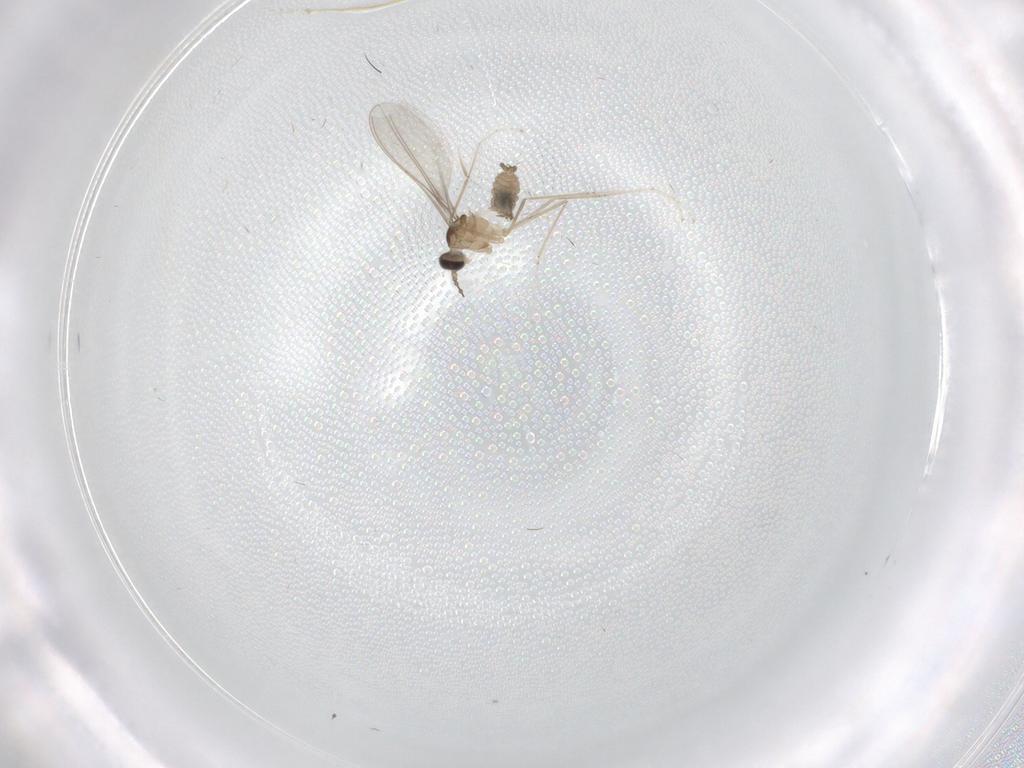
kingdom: Animalia
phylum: Arthropoda
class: Insecta
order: Diptera
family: Cecidomyiidae
